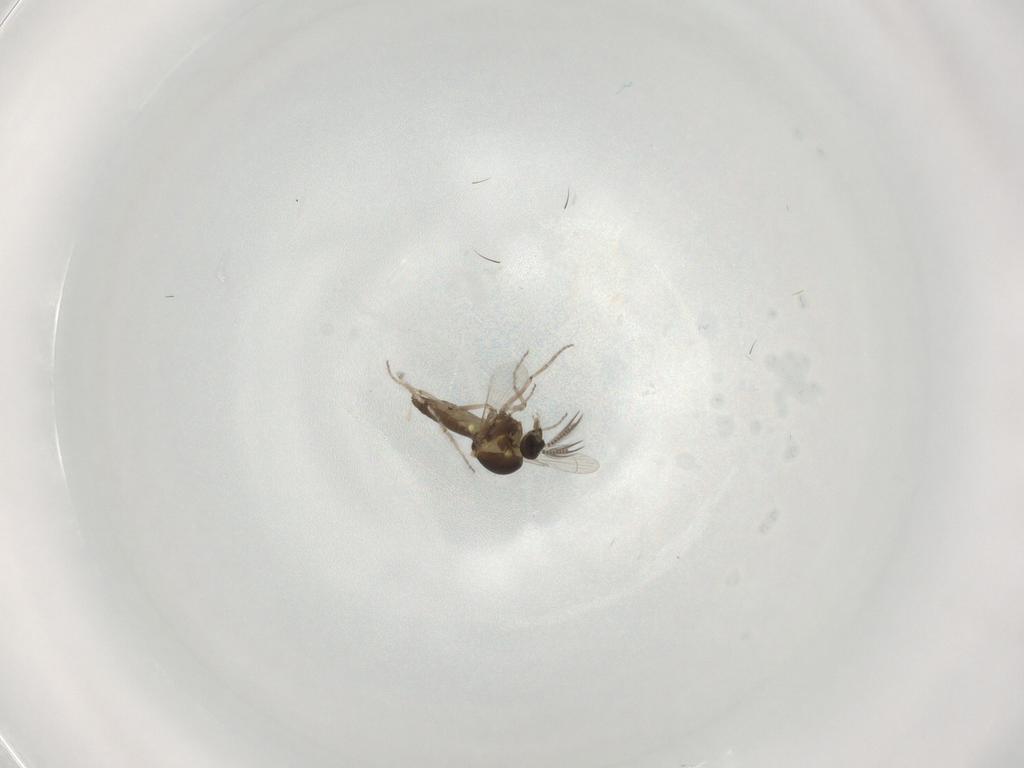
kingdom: Animalia
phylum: Arthropoda
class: Insecta
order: Diptera
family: Ceratopogonidae
